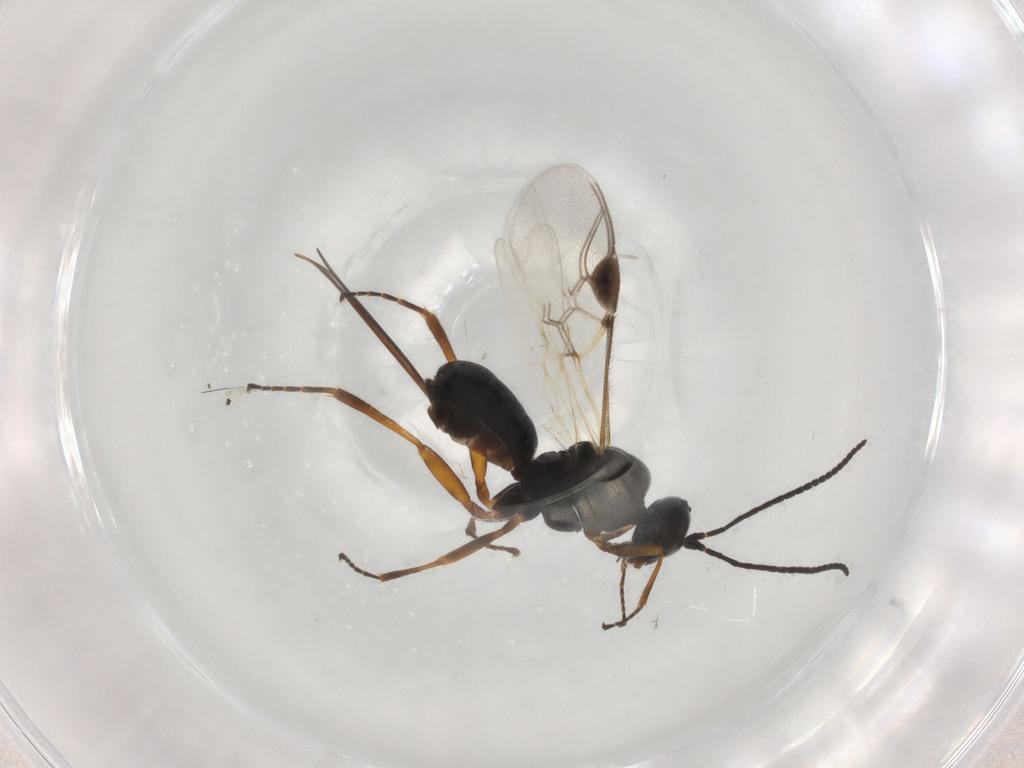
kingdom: Animalia
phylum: Arthropoda
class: Insecta
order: Hymenoptera
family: Braconidae
